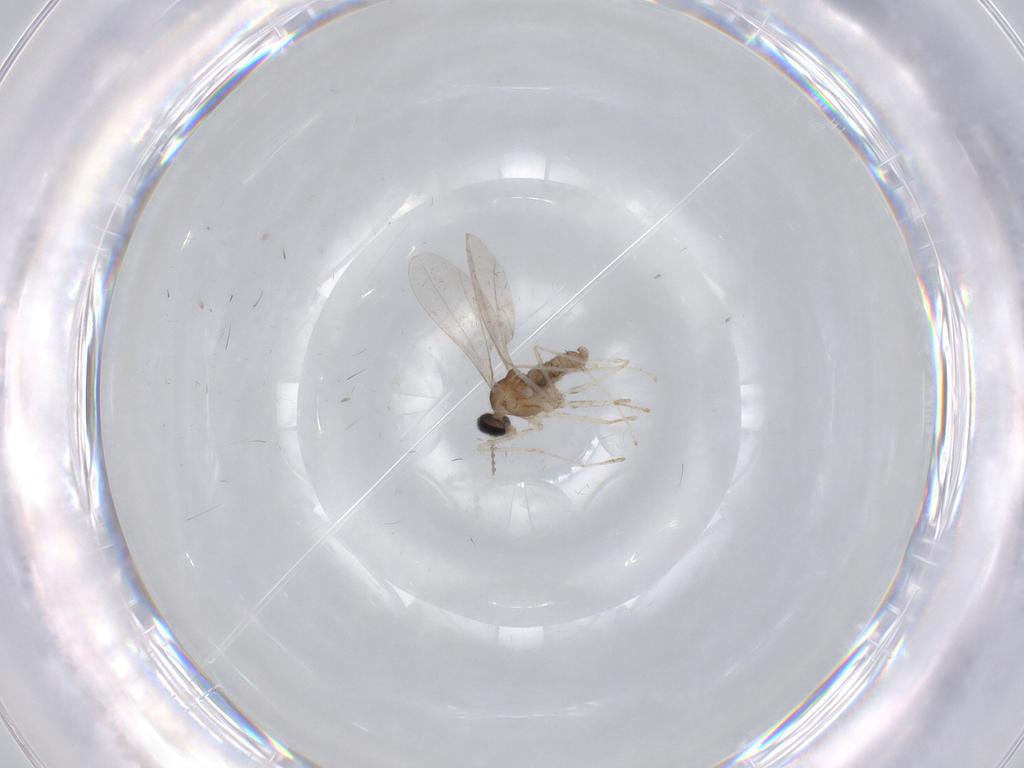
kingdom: Animalia
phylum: Arthropoda
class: Insecta
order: Diptera
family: Cecidomyiidae
